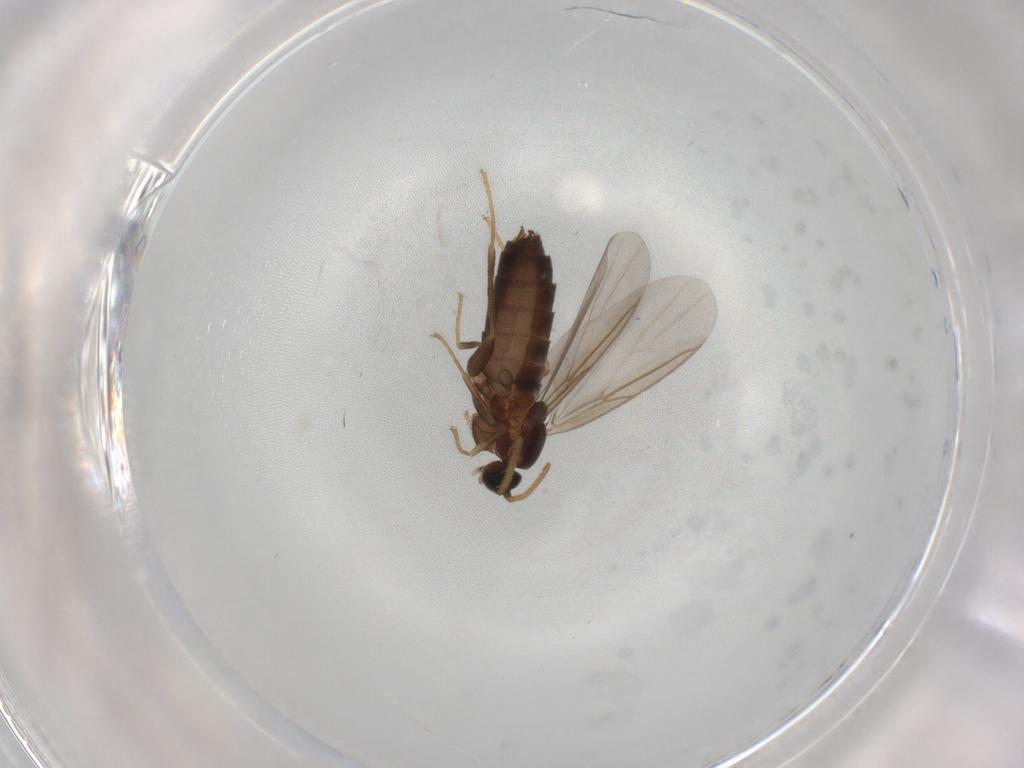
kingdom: Animalia
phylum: Arthropoda
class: Insecta
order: Diptera
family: Scatopsidae
